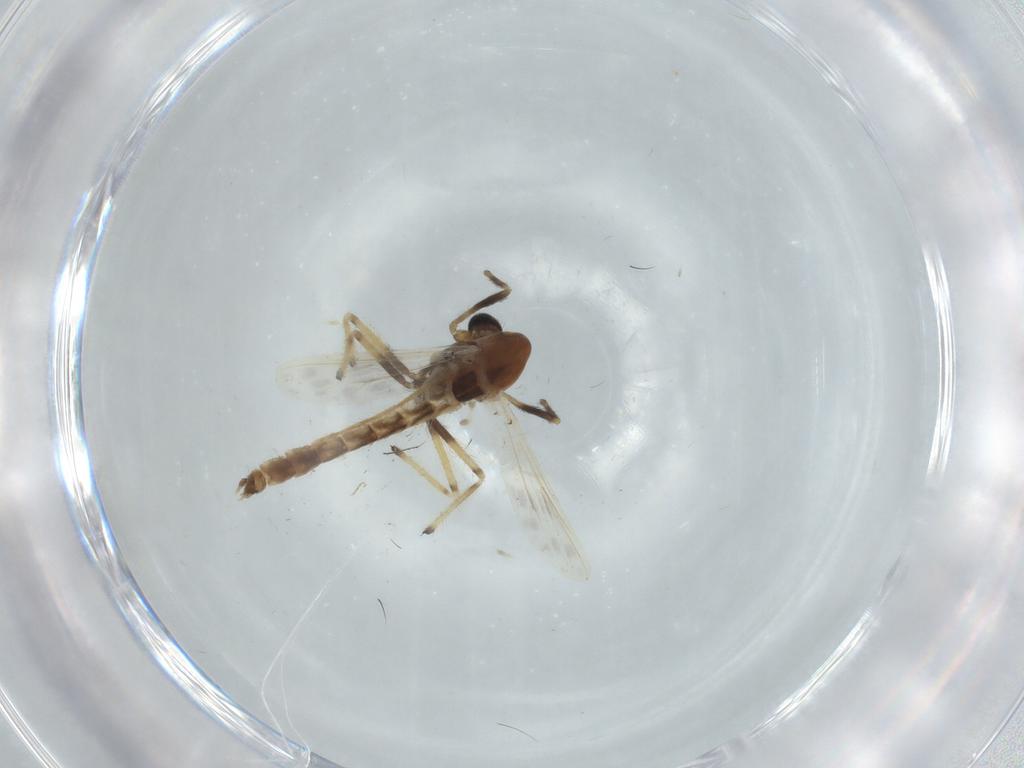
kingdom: Animalia
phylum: Arthropoda
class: Insecta
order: Diptera
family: Chironomidae
